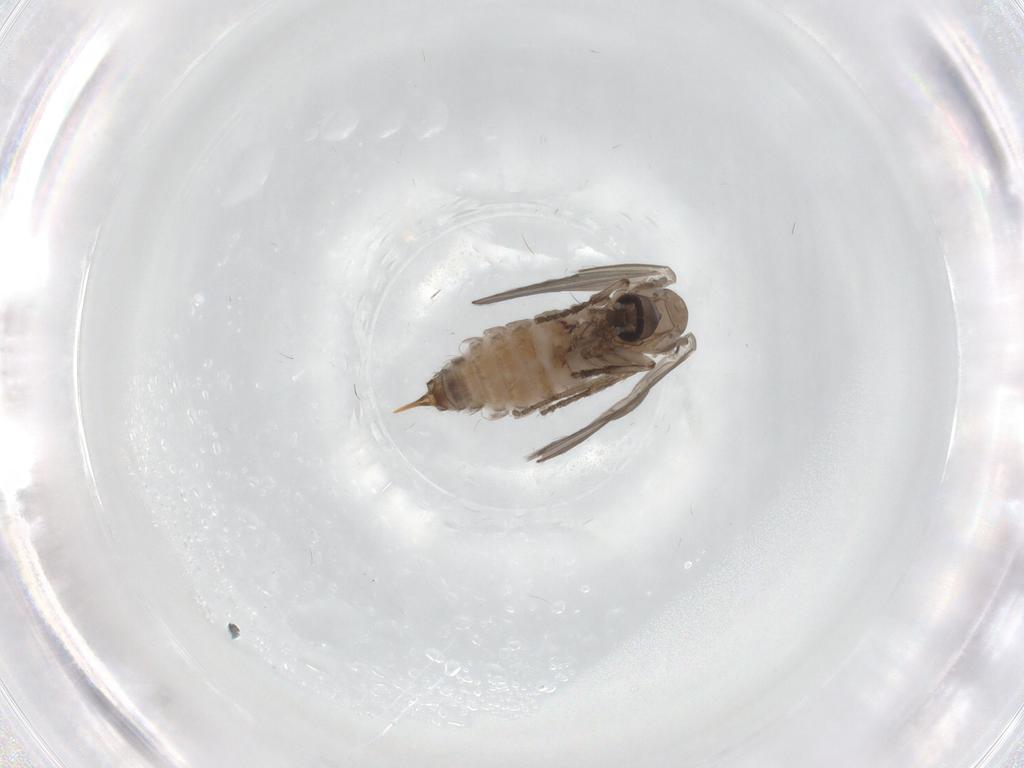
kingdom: Animalia
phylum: Arthropoda
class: Insecta
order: Diptera
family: Psychodidae
